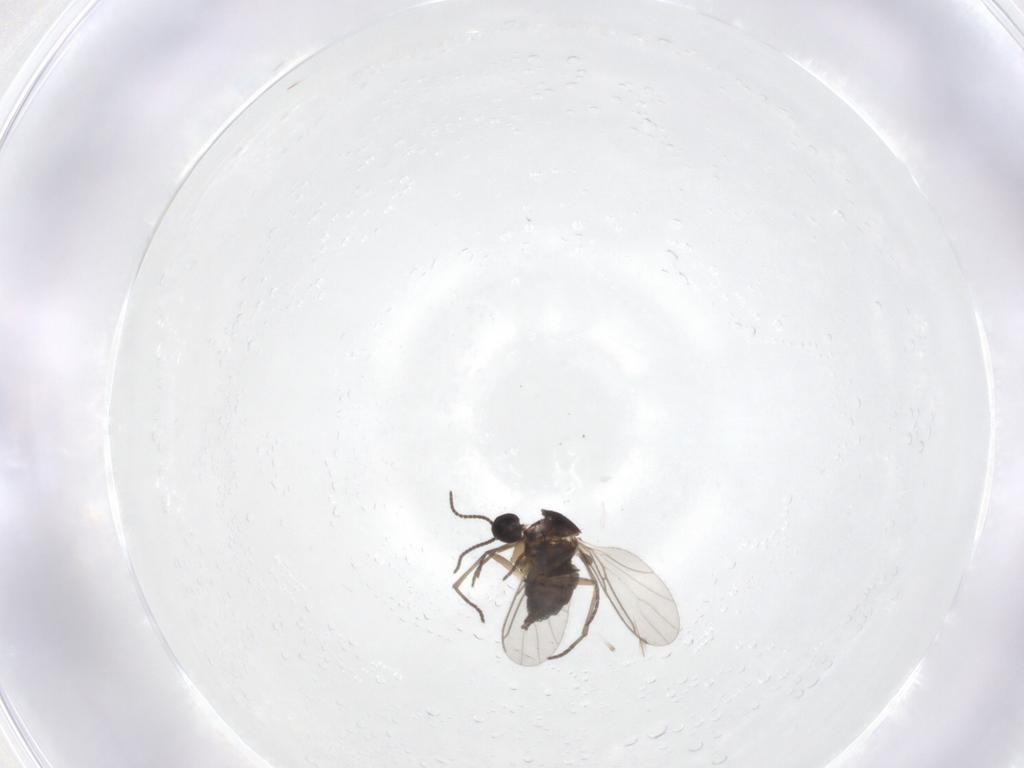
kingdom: Animalia
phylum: Arthropoda
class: Insecta
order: Diptera
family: Sciaridae
